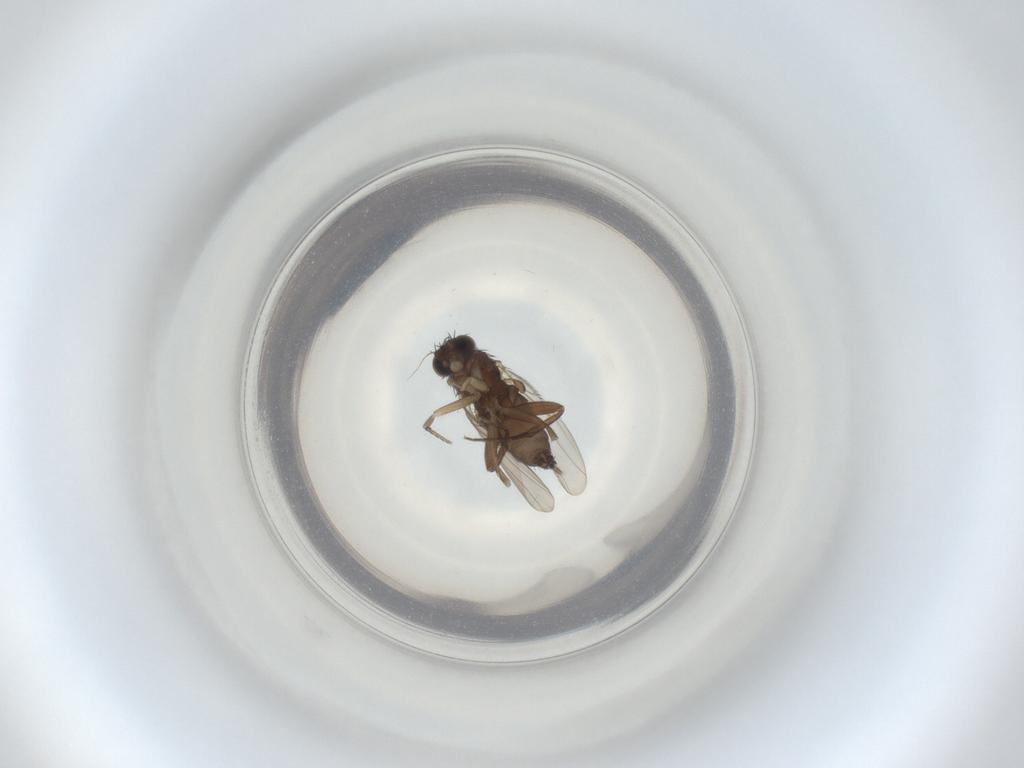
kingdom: Animalia
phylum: Arthropoda
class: Insecta
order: Diptera
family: Phoridae
